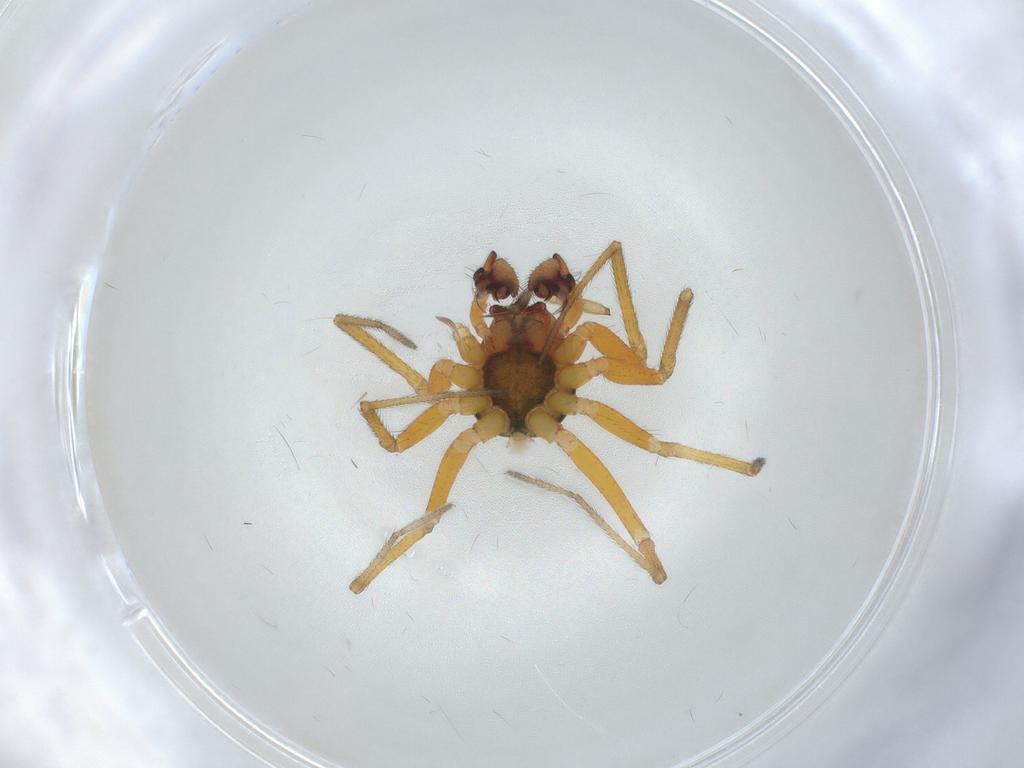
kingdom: Animalia
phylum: Arthropoda
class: Arachnida
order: Araneae
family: Linyphiidae
